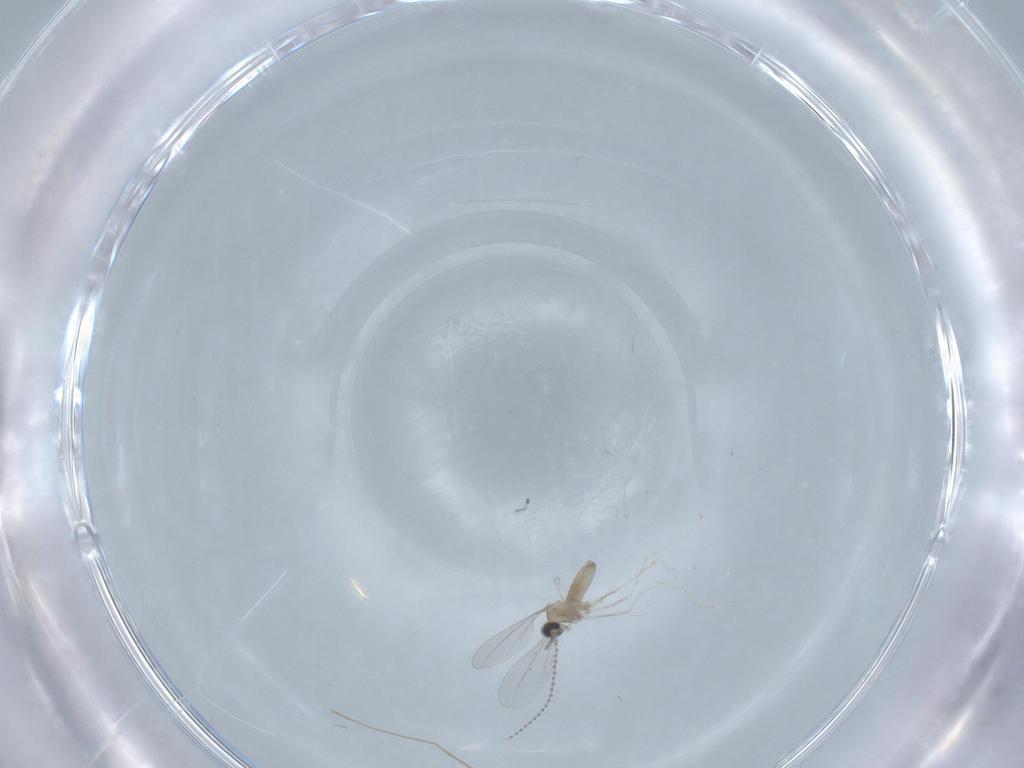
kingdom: Animalia
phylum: Arthropoda
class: Insecta
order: Diptera
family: Chironomidae
